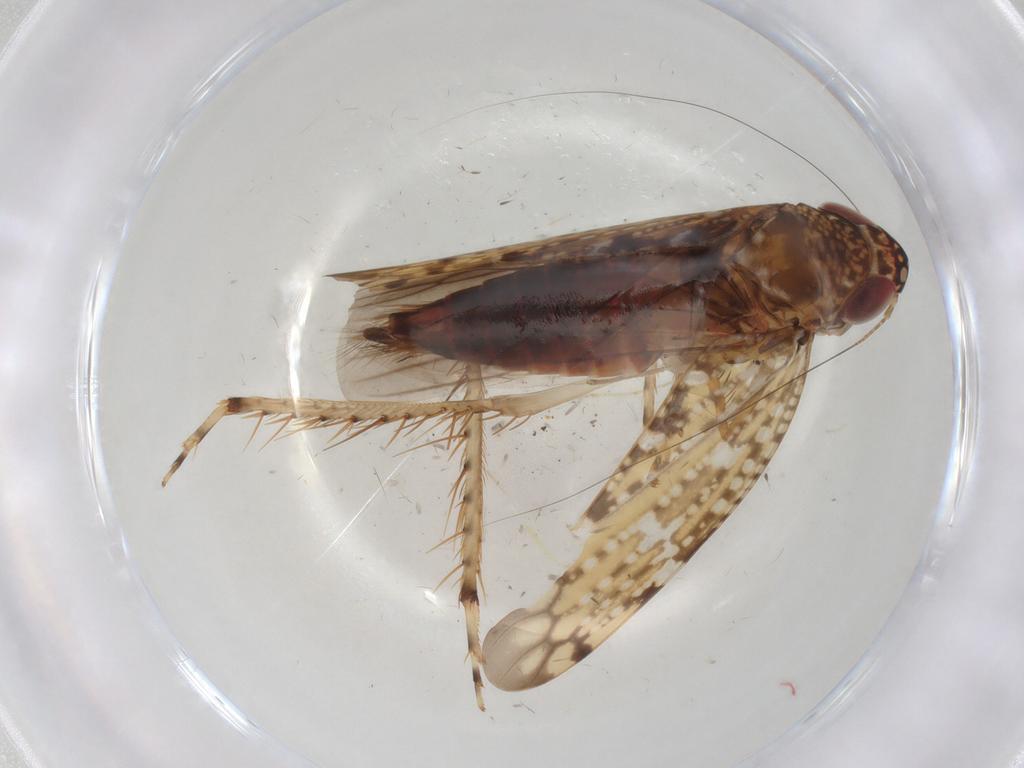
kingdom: Animalia
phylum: Arthropoda
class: Insecta
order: Hemiptera
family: Cicadellidae
